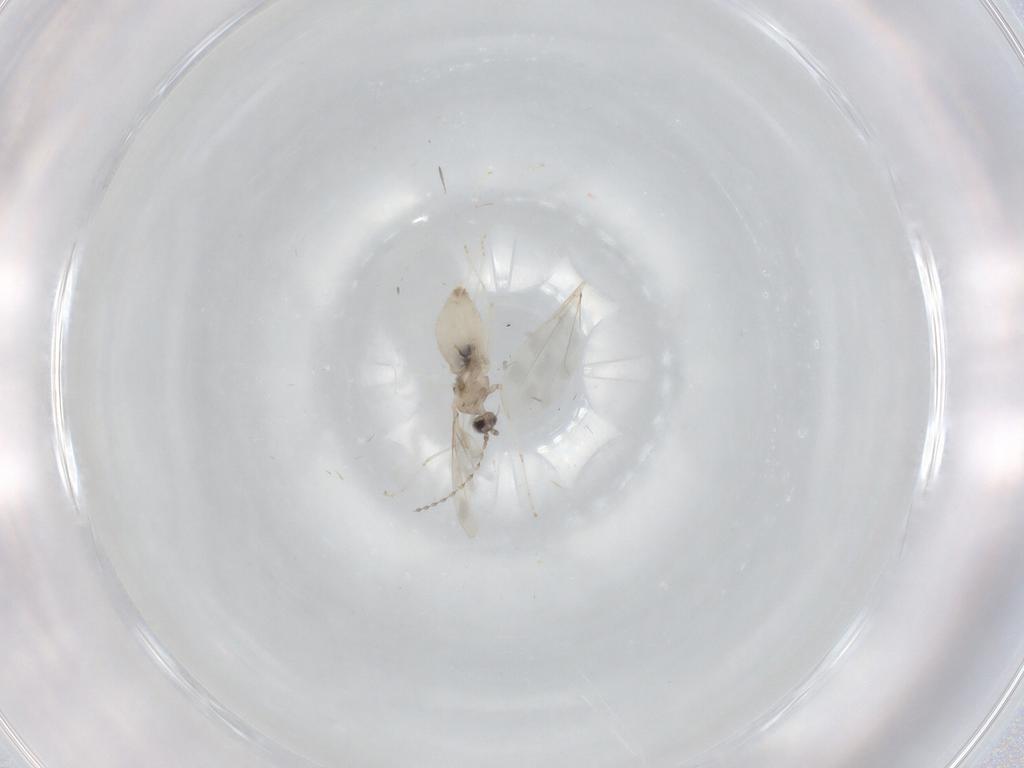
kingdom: Animalia
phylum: Arthropoda
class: Insecta
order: Diptera
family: Cecidomyiidae
